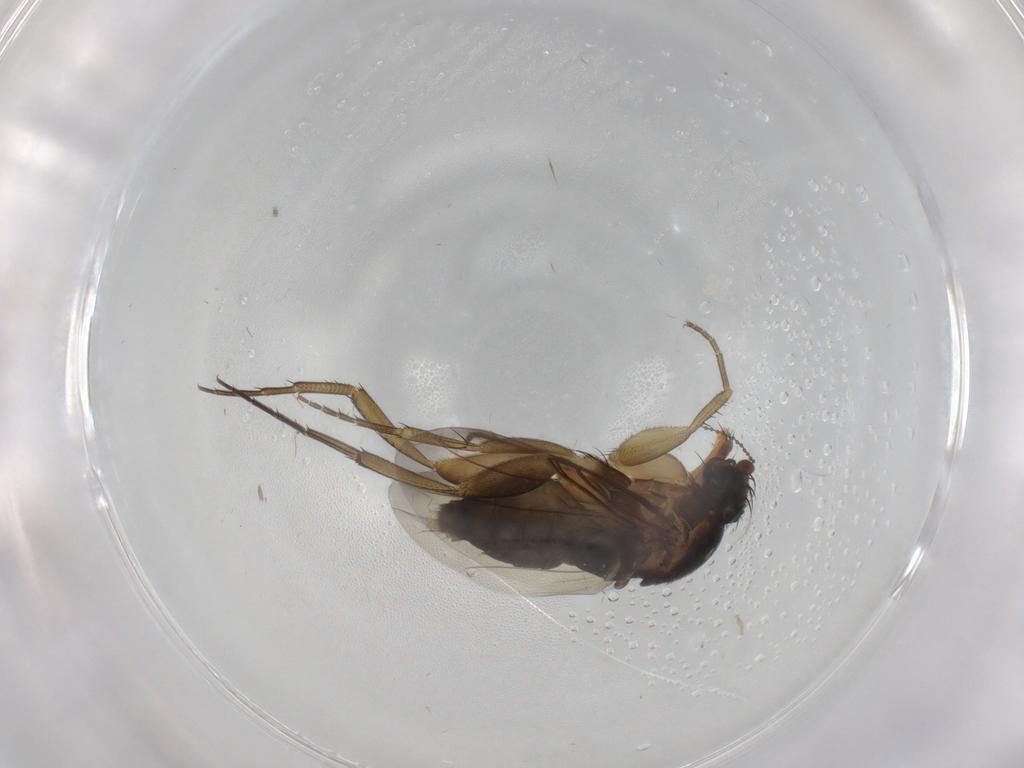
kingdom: Animalia
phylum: Arthropoda
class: Insecta
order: Diptera
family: Phoridae
